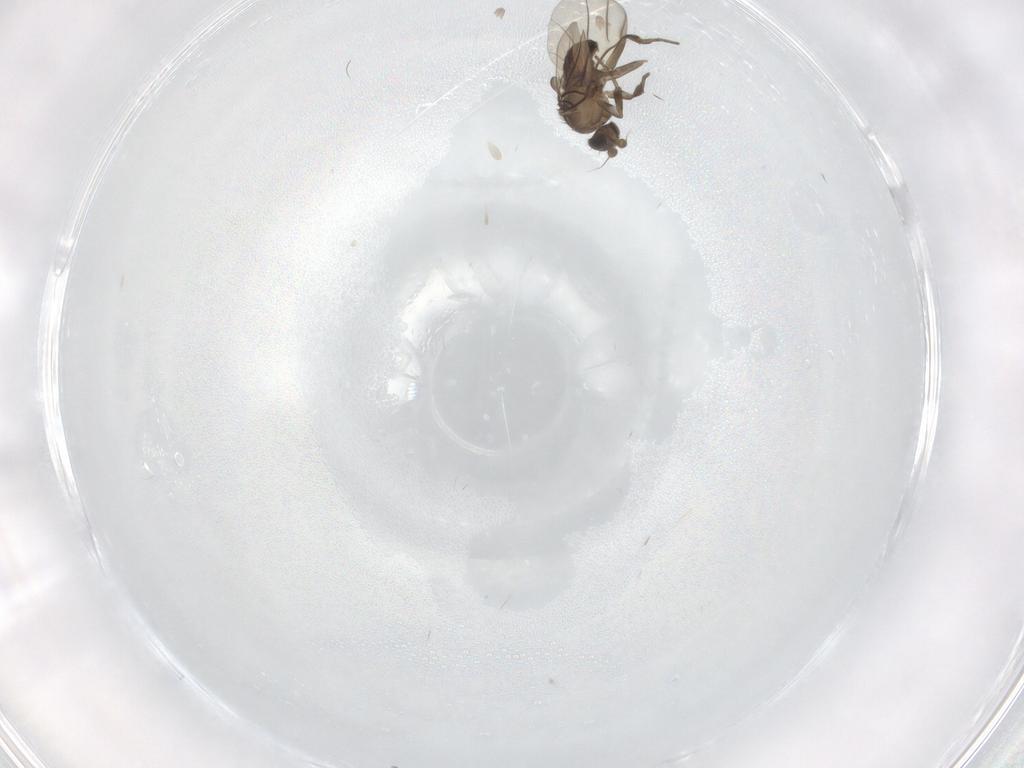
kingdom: Animalia
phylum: Arthropoda
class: Insecta
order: Diptera
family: Phoridae
